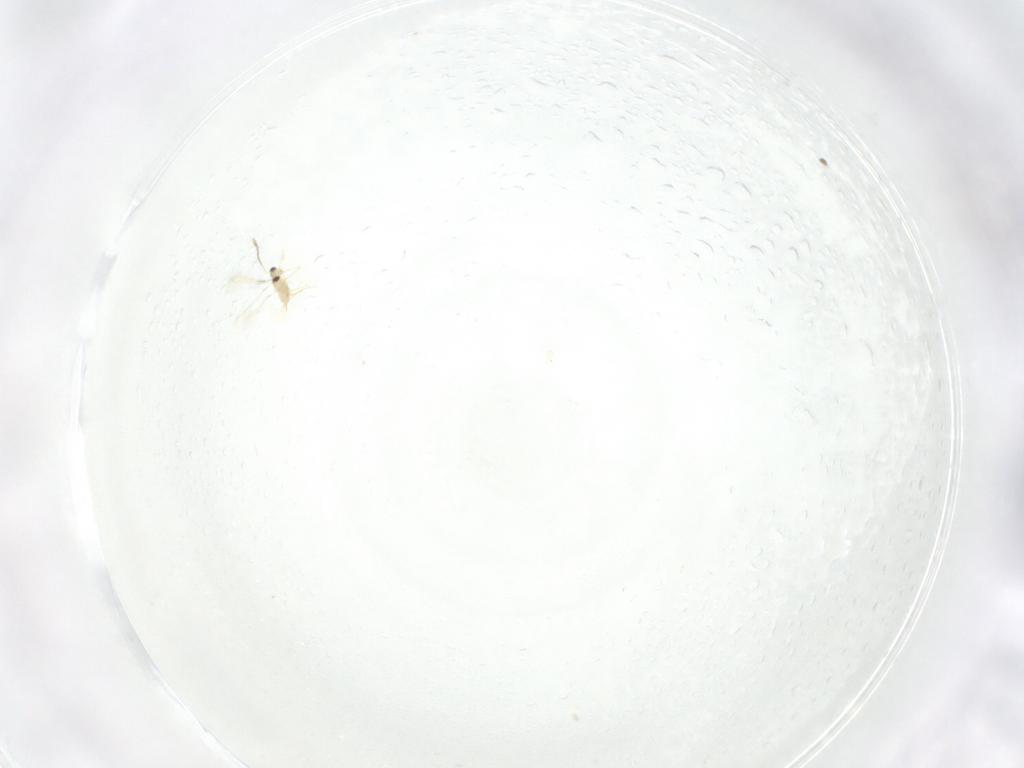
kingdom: Animalia
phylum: Arthropoda
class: Insecta
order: Hymenoptera
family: Mymaridae
